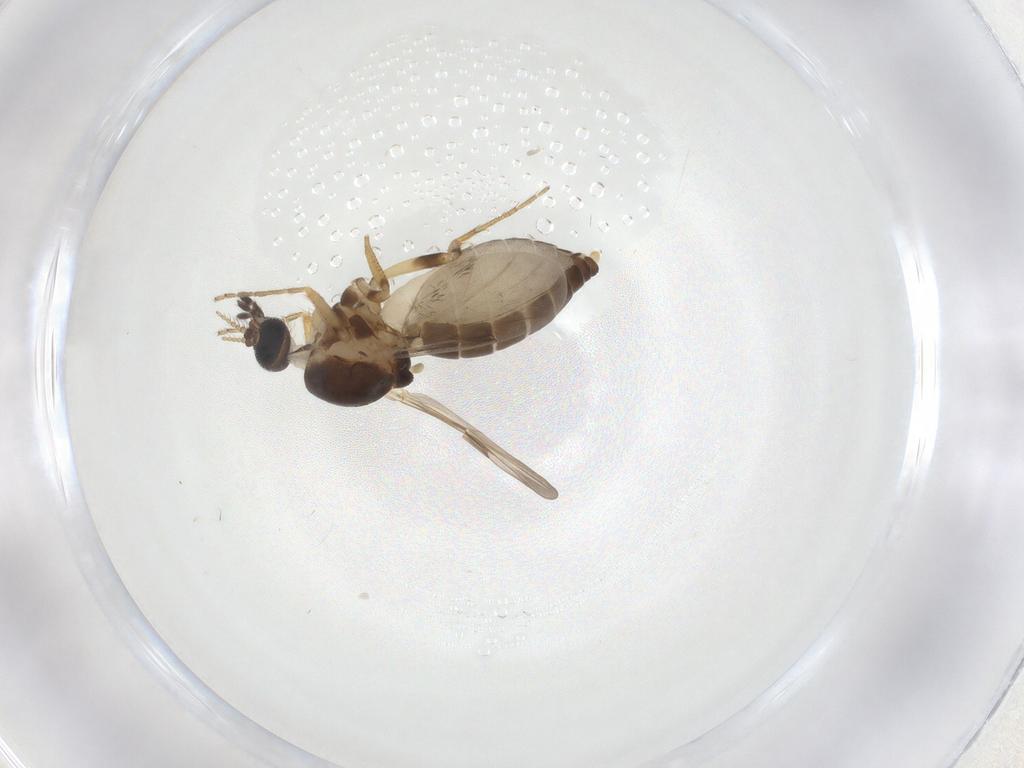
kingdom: Animalia
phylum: Arthropoda
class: Insecta
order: Diptera
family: Ceratopogonidae
